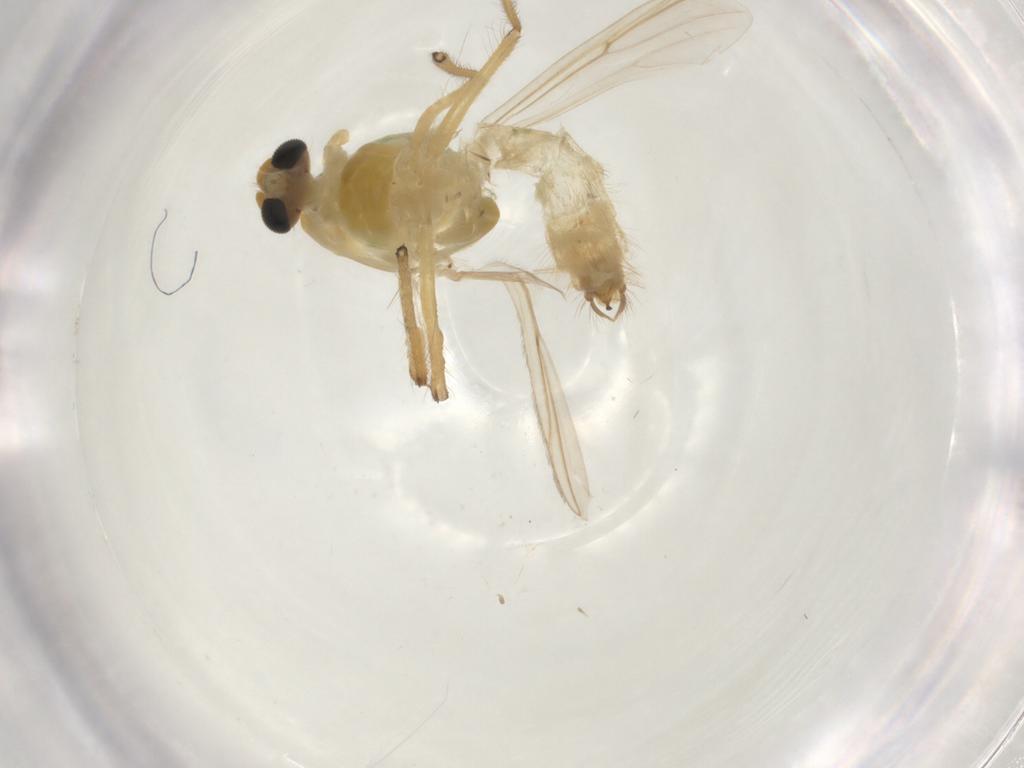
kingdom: Animalia
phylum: Arthropoda
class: Insecta
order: Diptera
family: Chironomidae
